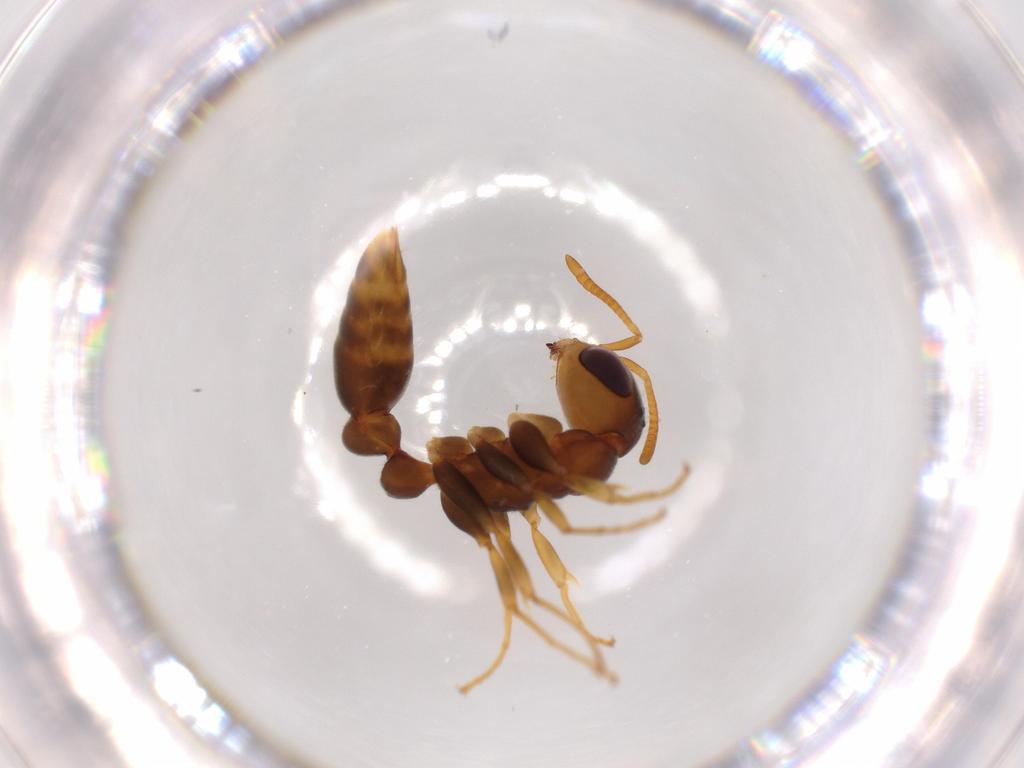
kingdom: Animalia
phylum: Arthropoda
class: Insecta
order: Hymenoptera
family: Formicidae
